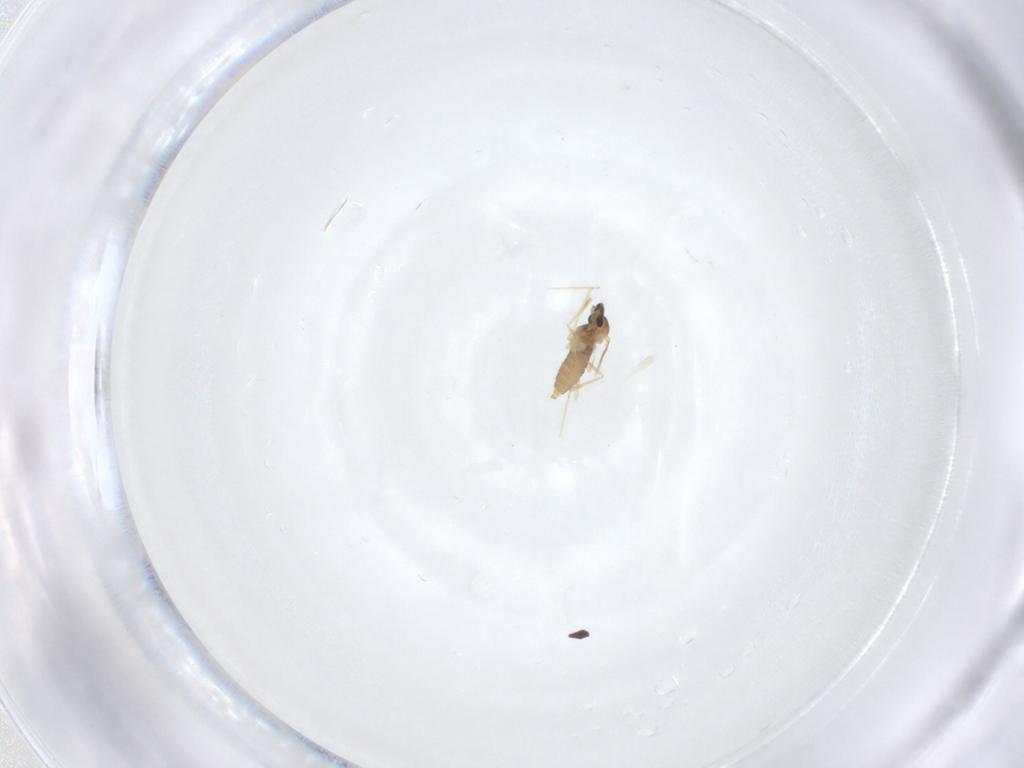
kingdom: Animalia
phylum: Arthropoda
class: Insecta
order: Diptera
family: Cecidomyiidae
